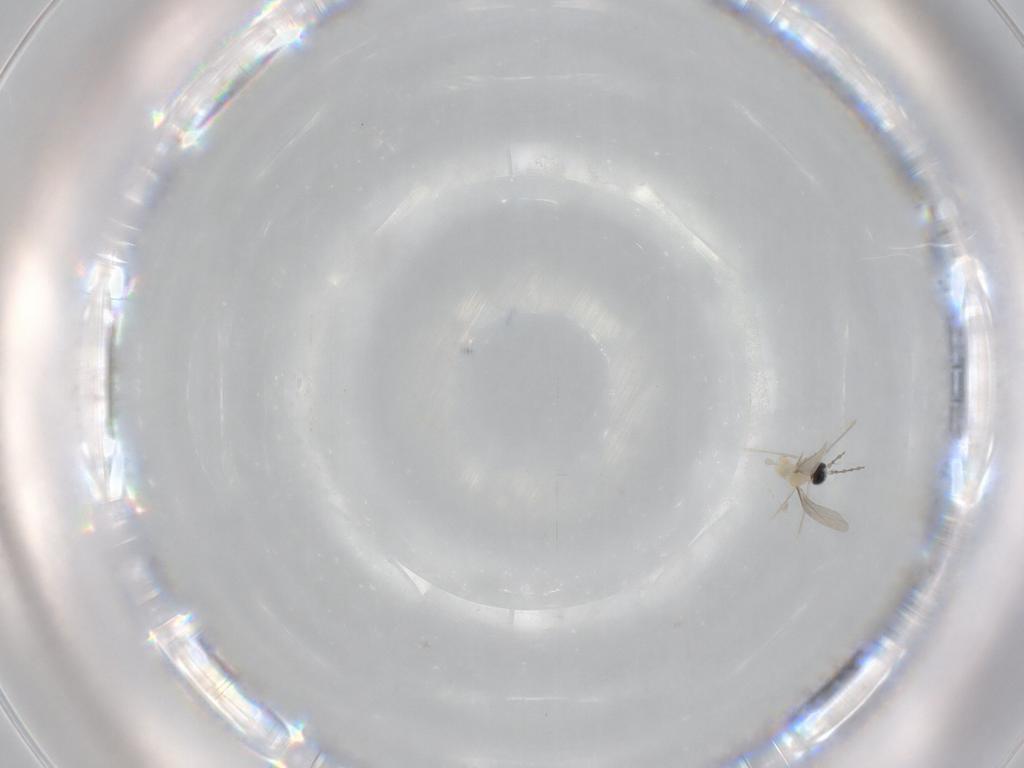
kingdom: Animalia
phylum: Arthropoda
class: Insecta
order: Diptera
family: Cecidomyiidae
